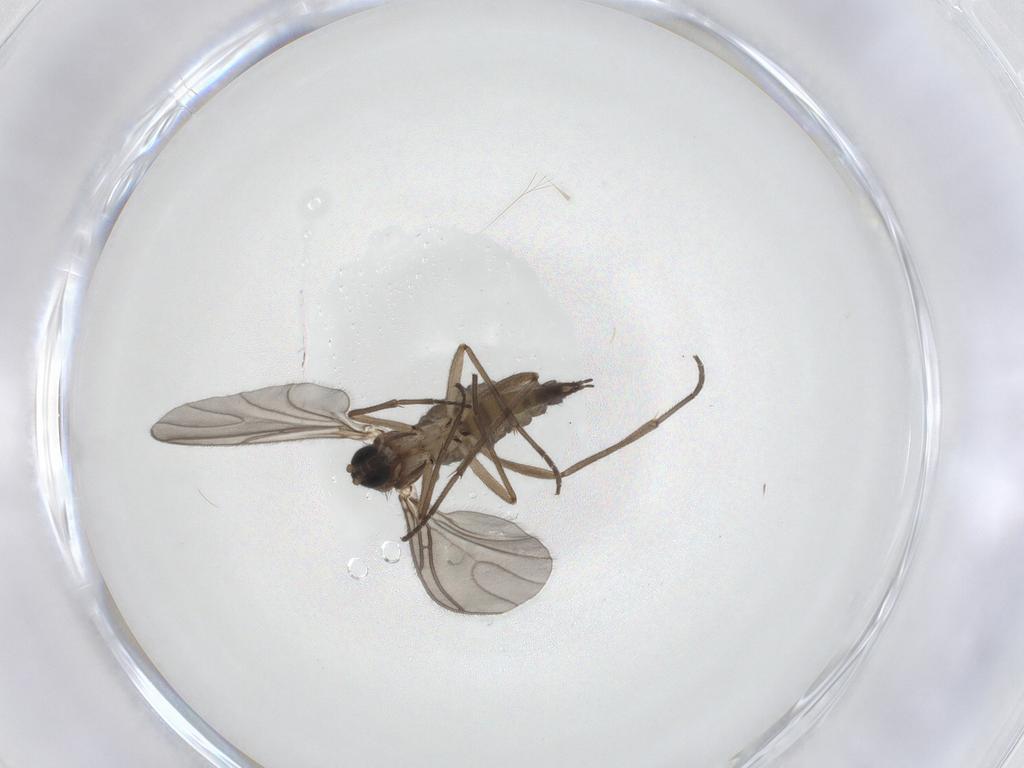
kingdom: Animalia
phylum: Arthropoda
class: Insecta
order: Diptera
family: Sciaridae
